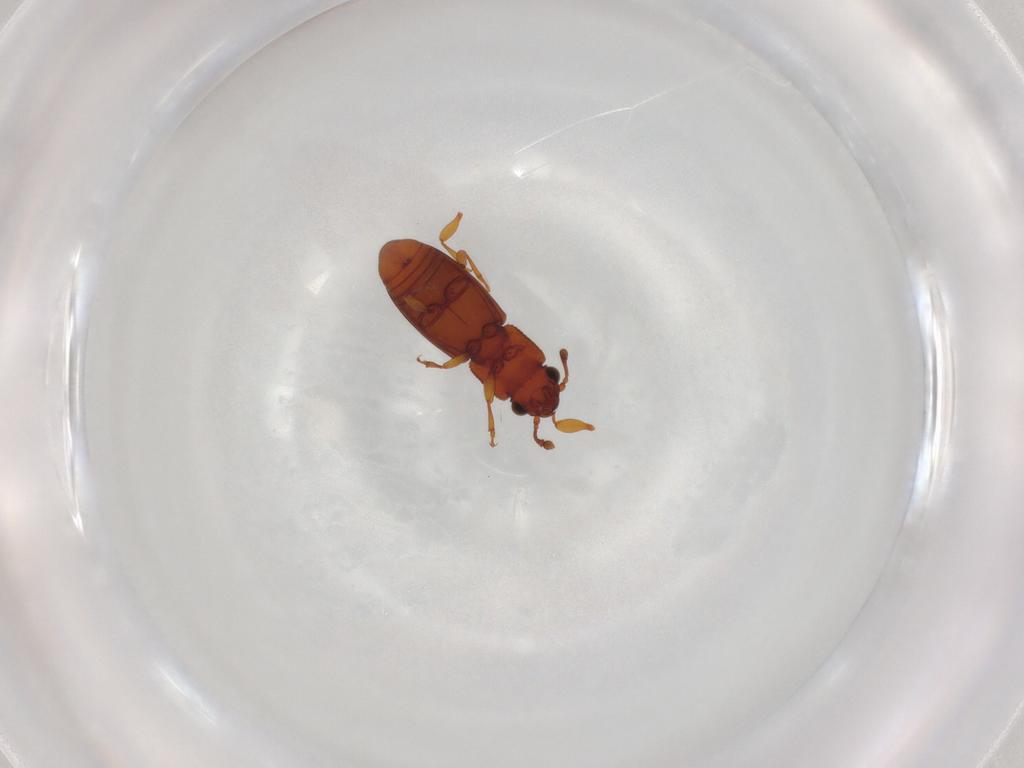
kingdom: Animalia
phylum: Arthropoda
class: Insecta
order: Coleoptera
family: Monotomidae
